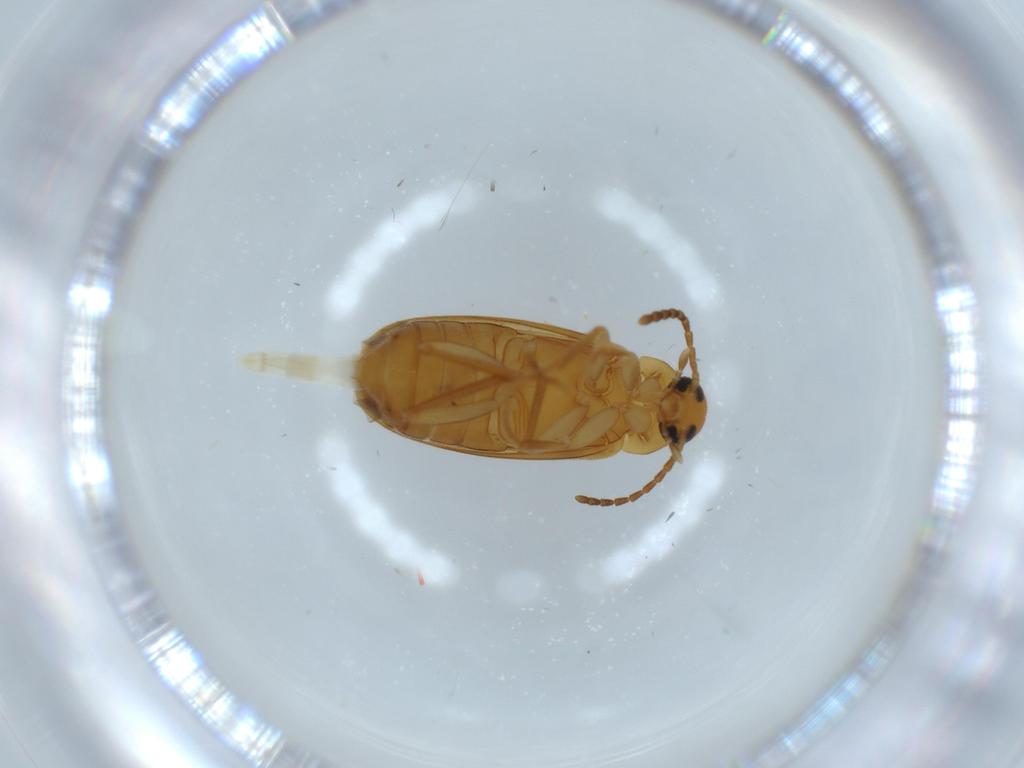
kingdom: Animalia
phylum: Arthropoda
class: Insecta
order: Coleoptera
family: Scraptiidae
